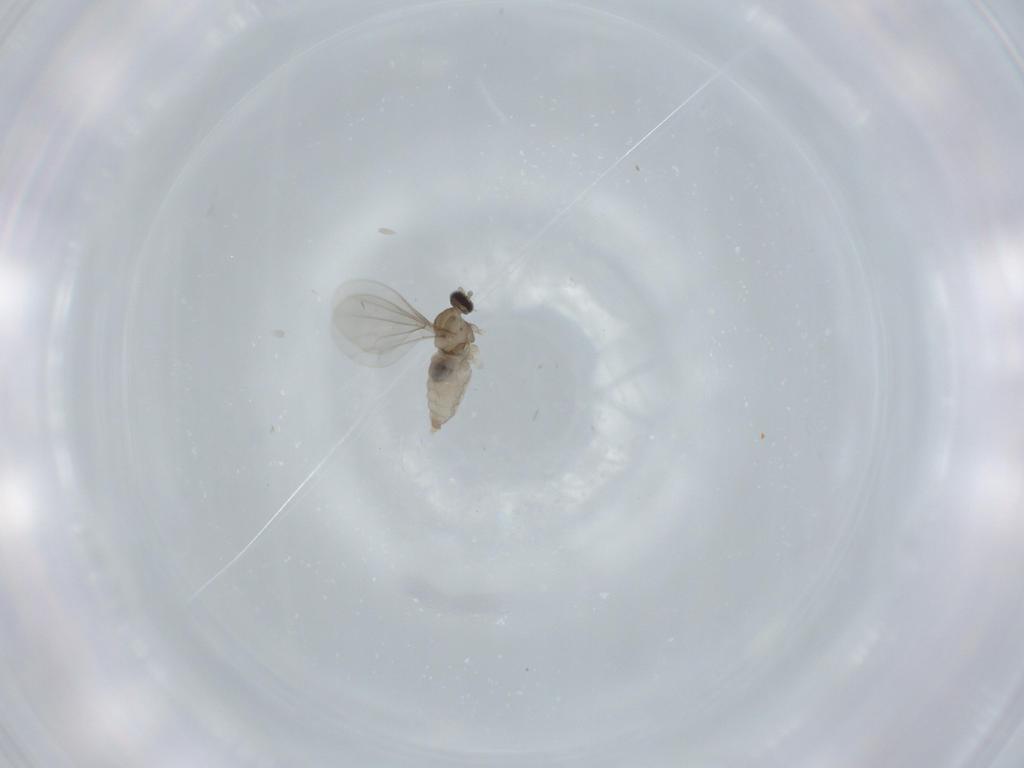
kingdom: Animalia
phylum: Arthropoda
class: Insecta
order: Diptera
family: Cecidomyiidae
